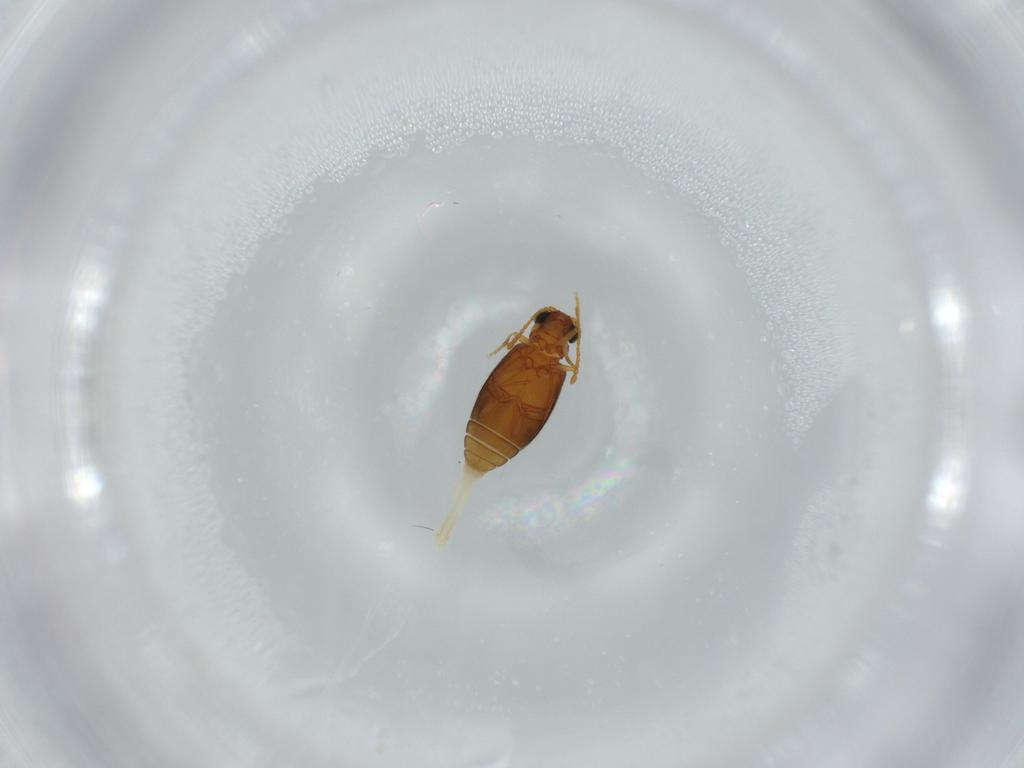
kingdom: Animalia
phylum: Arthropoda
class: Insecta
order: Coleoptera
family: Aderidae
